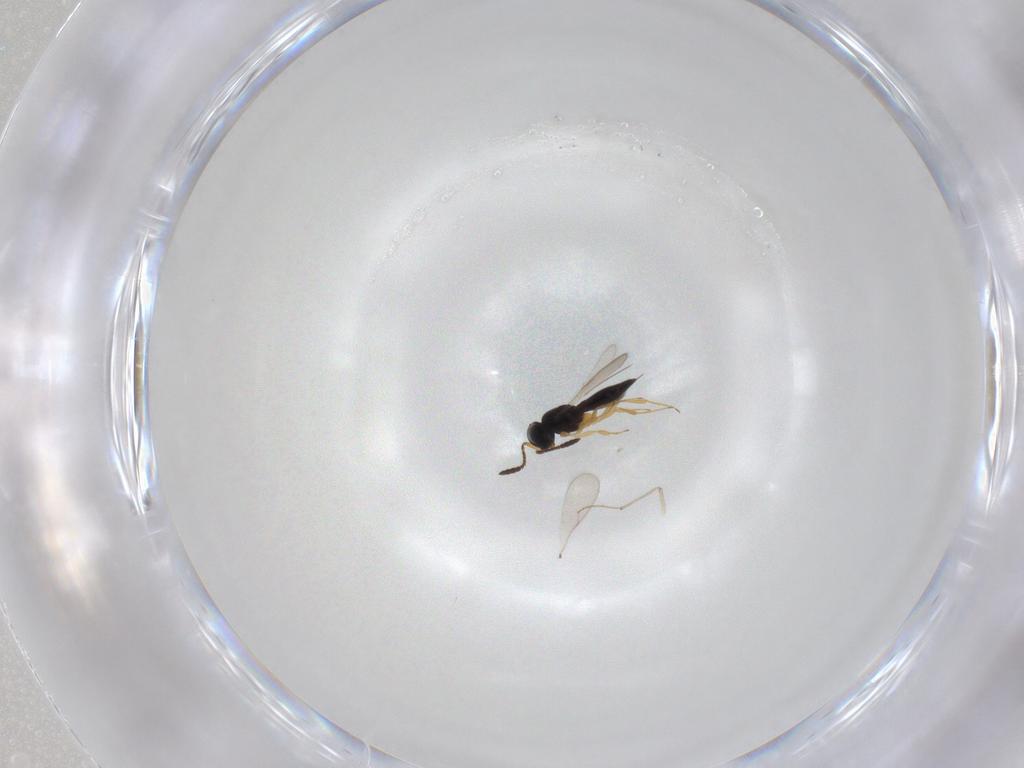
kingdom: Animalia
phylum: Arthropoda
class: Insecta
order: Hymenoptera
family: Scelionidae
